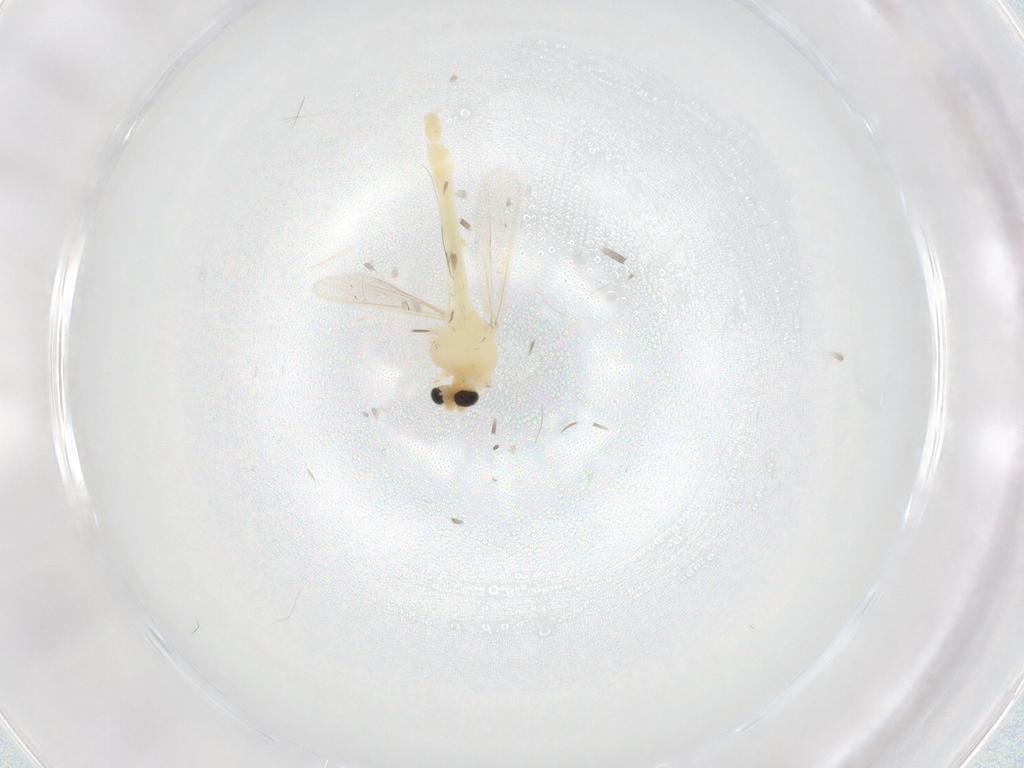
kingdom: Animalia
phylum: Arthropoda
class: Insecta
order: Diptera
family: Chironomidae
